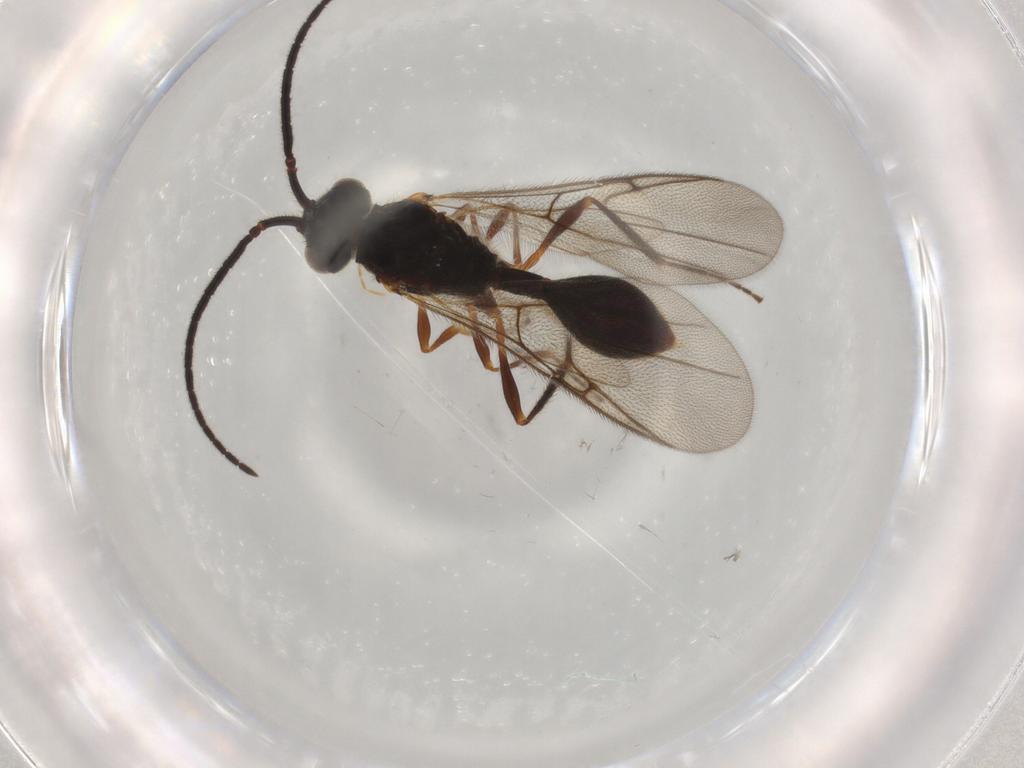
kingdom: Animalia
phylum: Arthropoda
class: Insecta
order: Hymenoptera
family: Diapriidae
